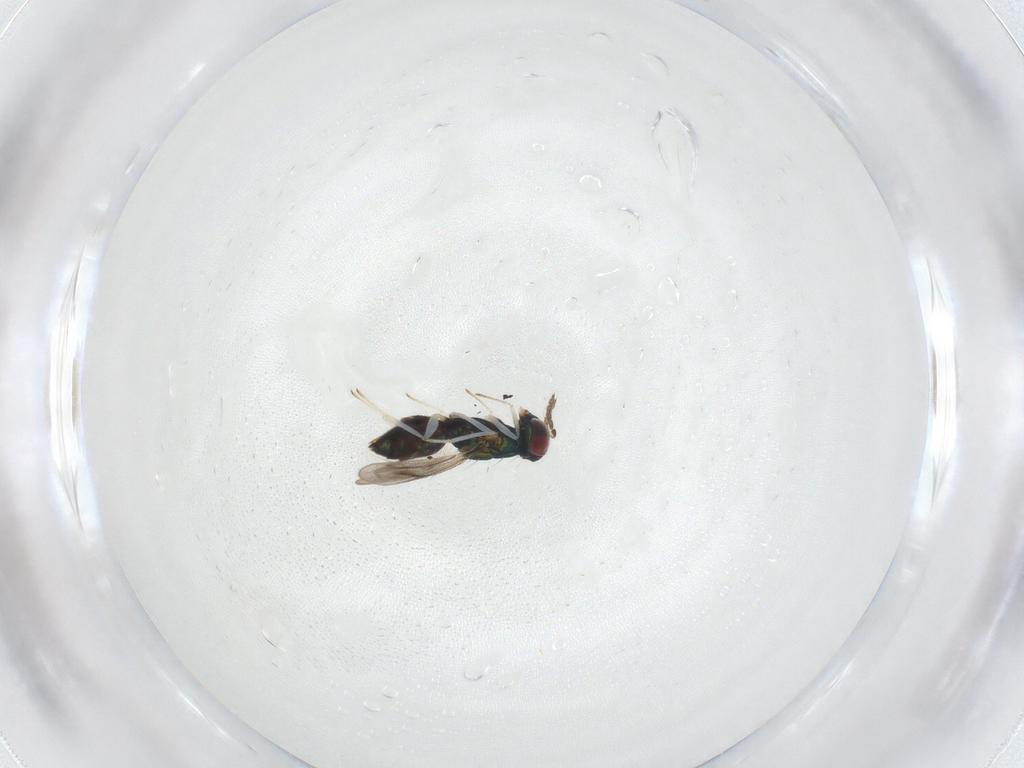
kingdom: Animalia
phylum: Arthropoda
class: Insecta
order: Hymenoptera
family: Eulophidae
